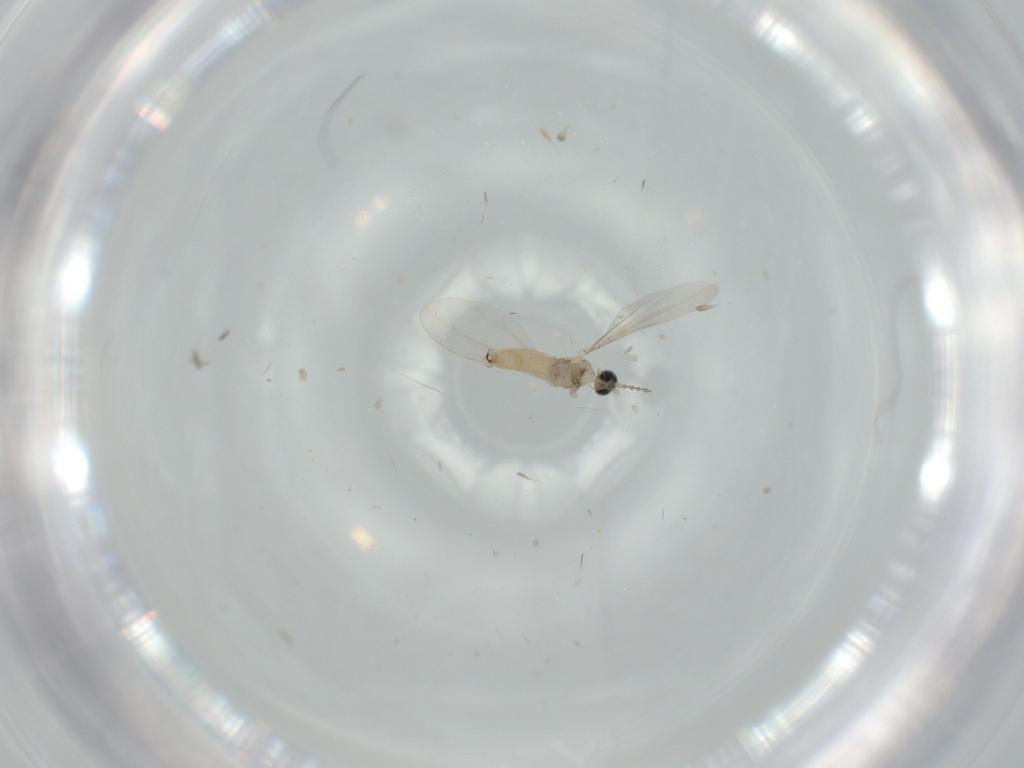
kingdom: Animalia
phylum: Arthropoda
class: Insecta
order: Diptera
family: Cecidomyiidae
